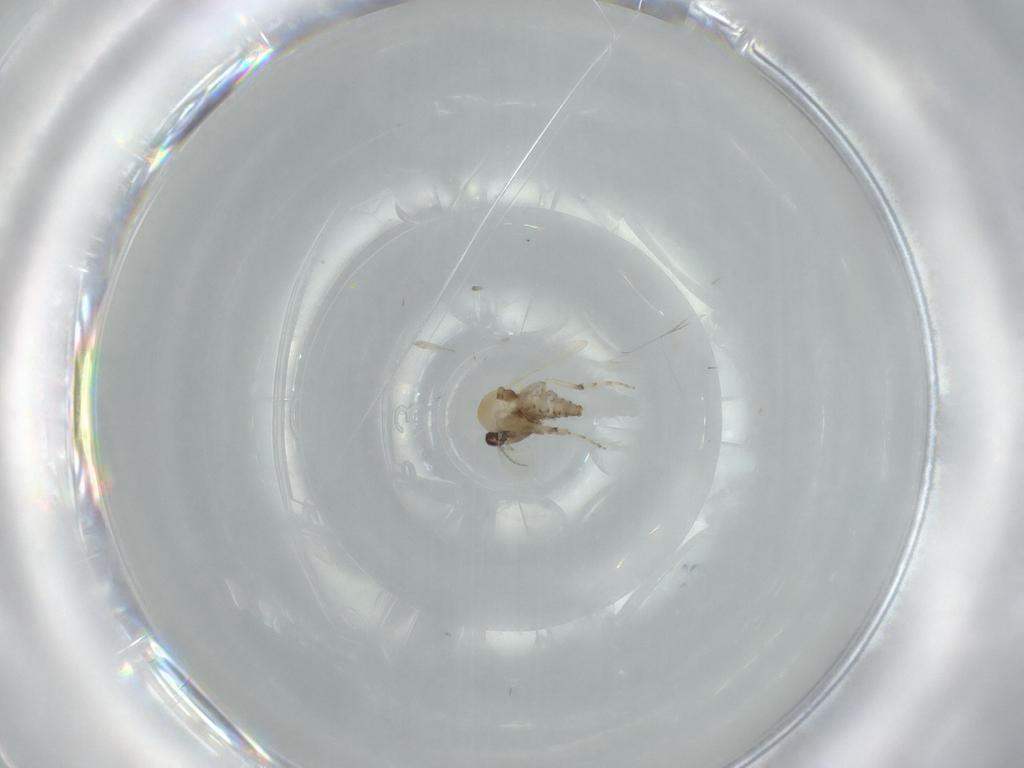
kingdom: Animalia
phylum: Arthropoda
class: Insecta
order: Diptera
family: Ceratopogonidae
